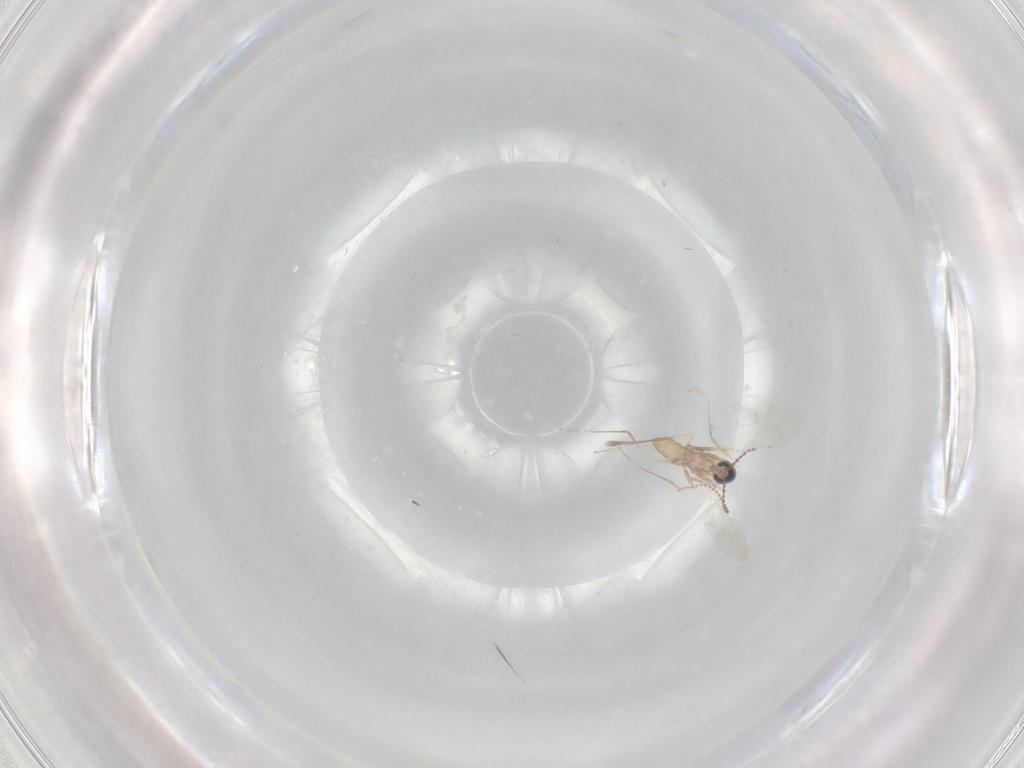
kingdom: Animalia
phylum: Arthropoda
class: Insecta
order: Diptera
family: Cecidomyiidae
